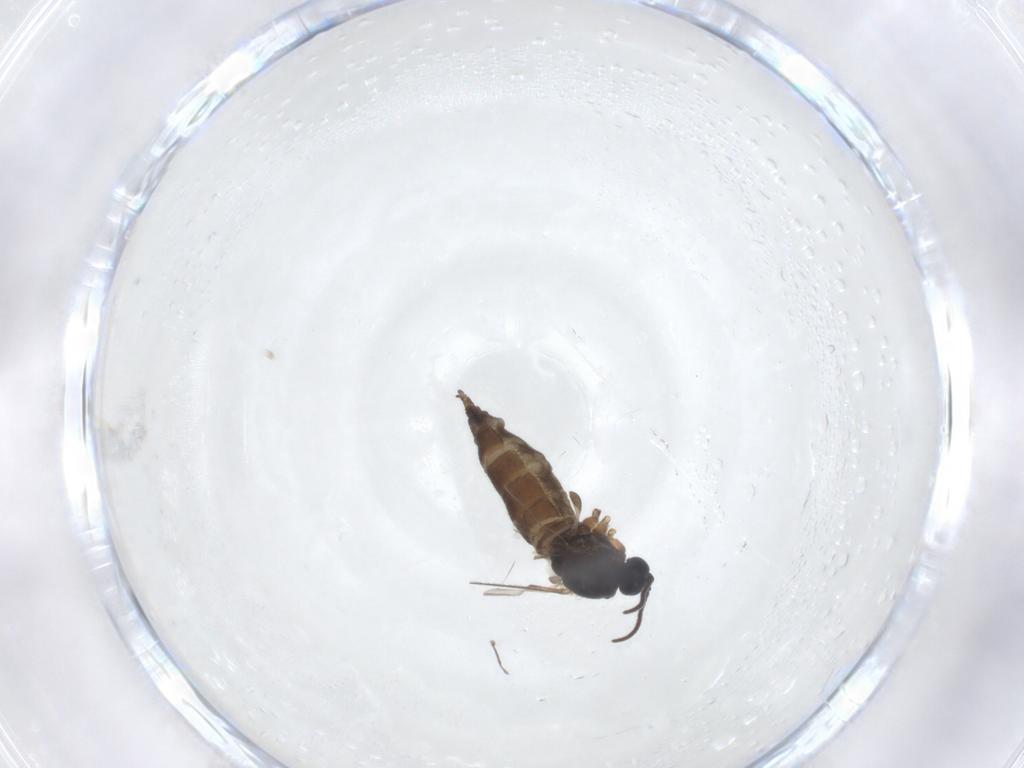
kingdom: Animalia
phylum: Arthropoda
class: Insecta
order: Diptera
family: Sciaridae
